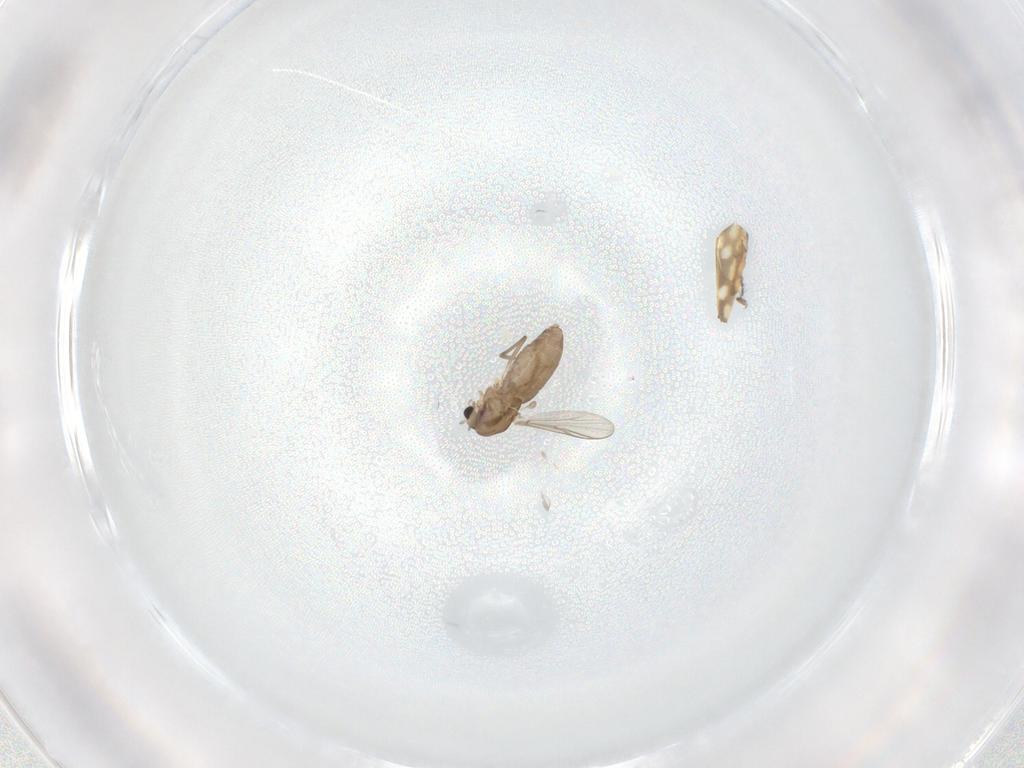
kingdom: Animalia
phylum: Arthropoda
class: Insecta
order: Diptera
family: Chironomidae
